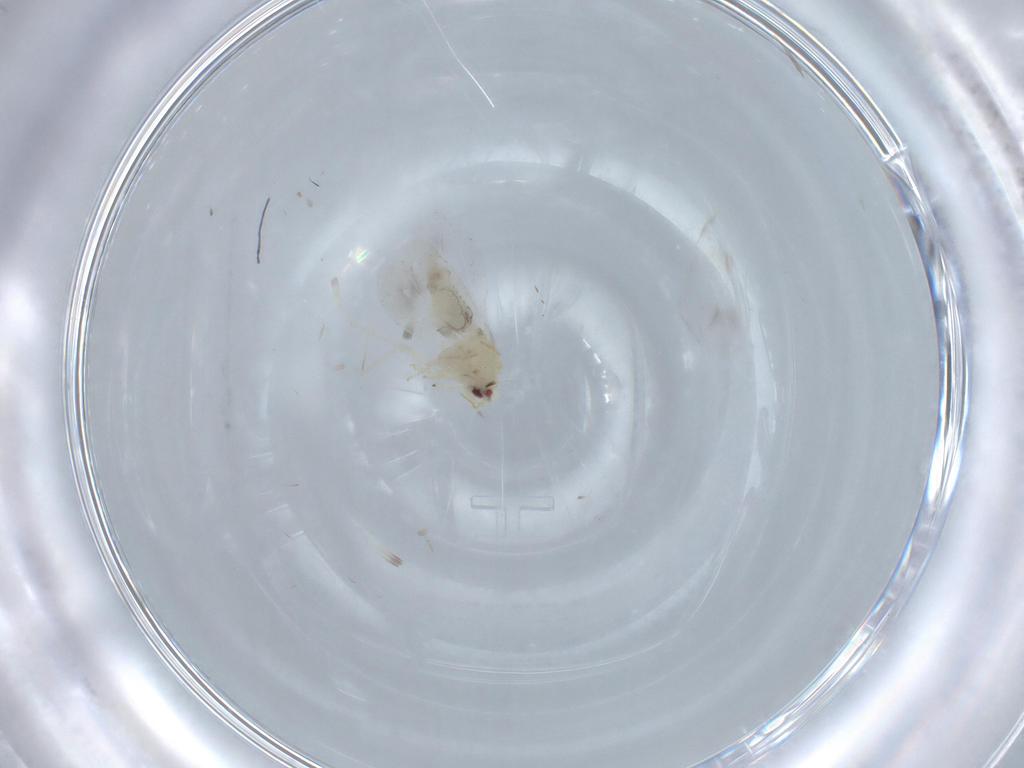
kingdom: Animalia
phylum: Arthropoda
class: Insecta
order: Hemiptera
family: Aleyrodidae
